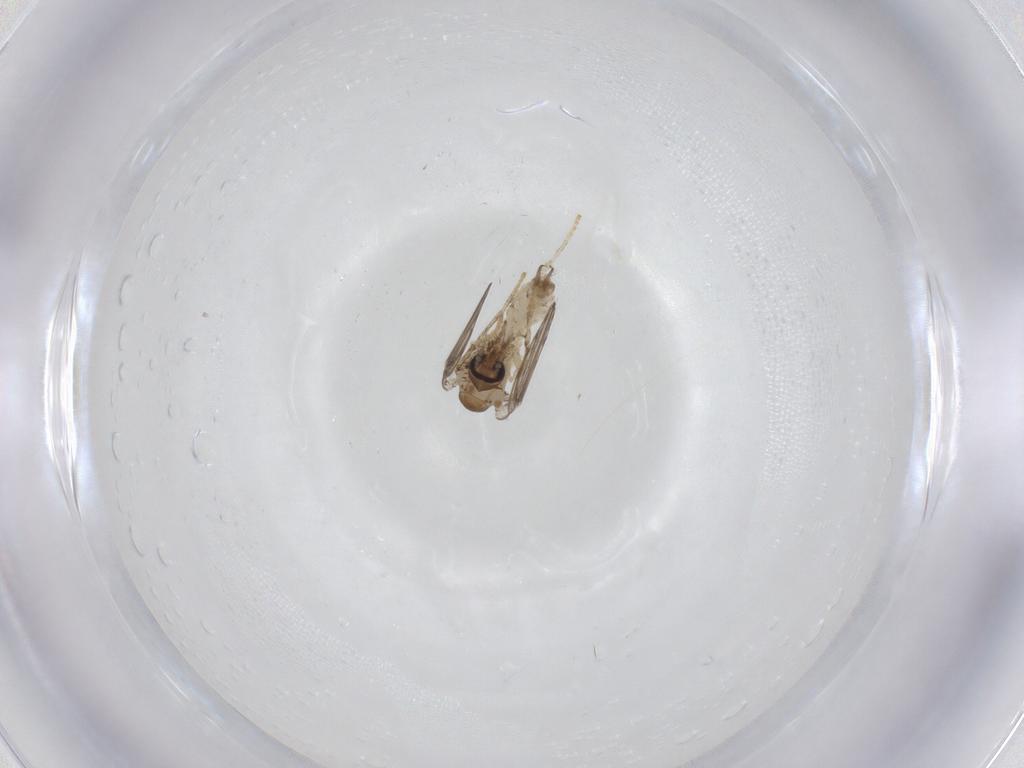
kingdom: Animalia
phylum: Arthropoda
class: Insecta
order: Diptera
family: Psychodidae
